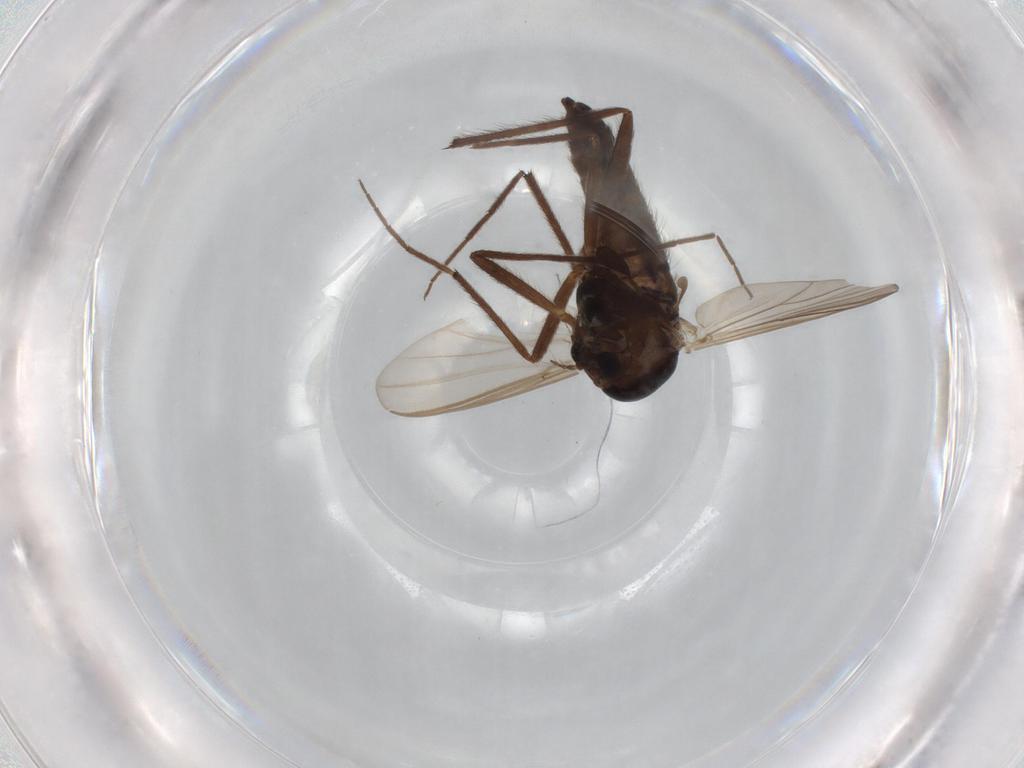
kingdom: Animalia
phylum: Arthropoda
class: Insecta
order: Diptera
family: Chironomidae
